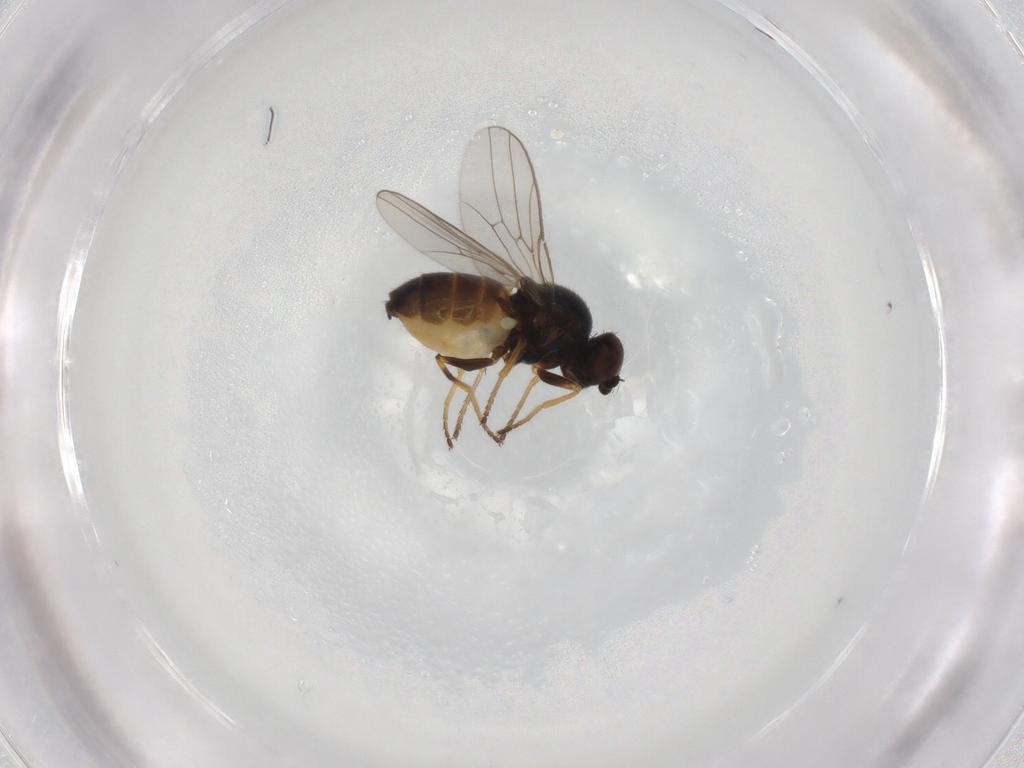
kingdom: Animalia
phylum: Arthropoda
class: Insecta
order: Diptera
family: Chloropidae
